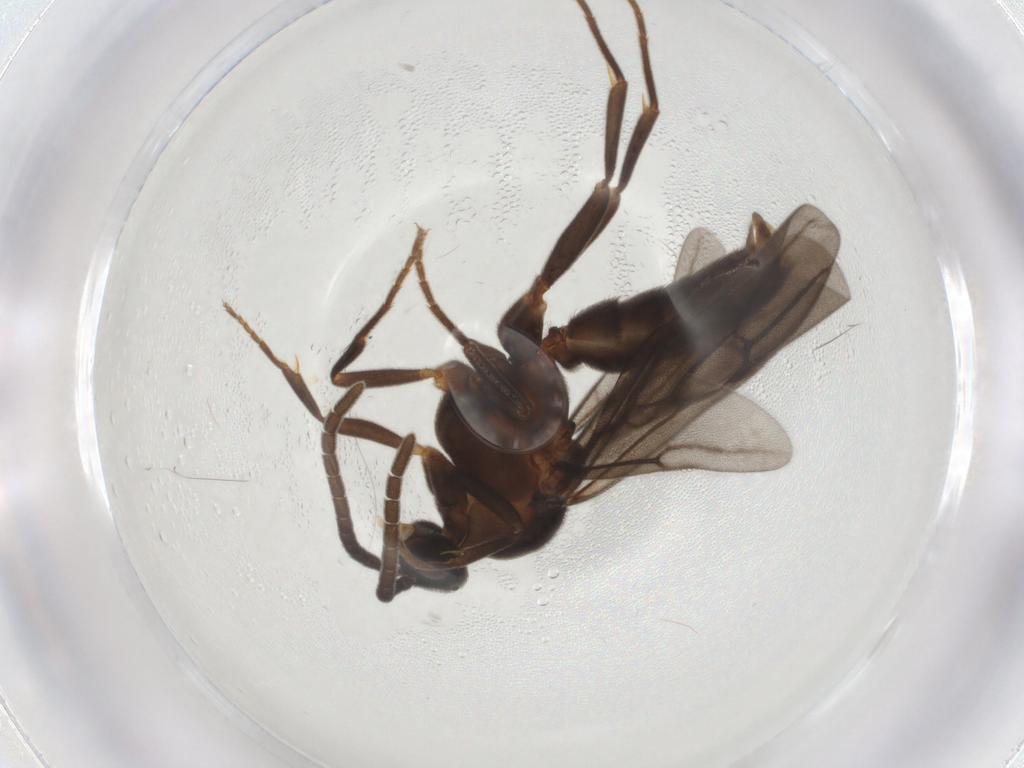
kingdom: Animalia
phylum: Arthropoda
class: Insecta
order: Hymenoptera
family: Formicidae
